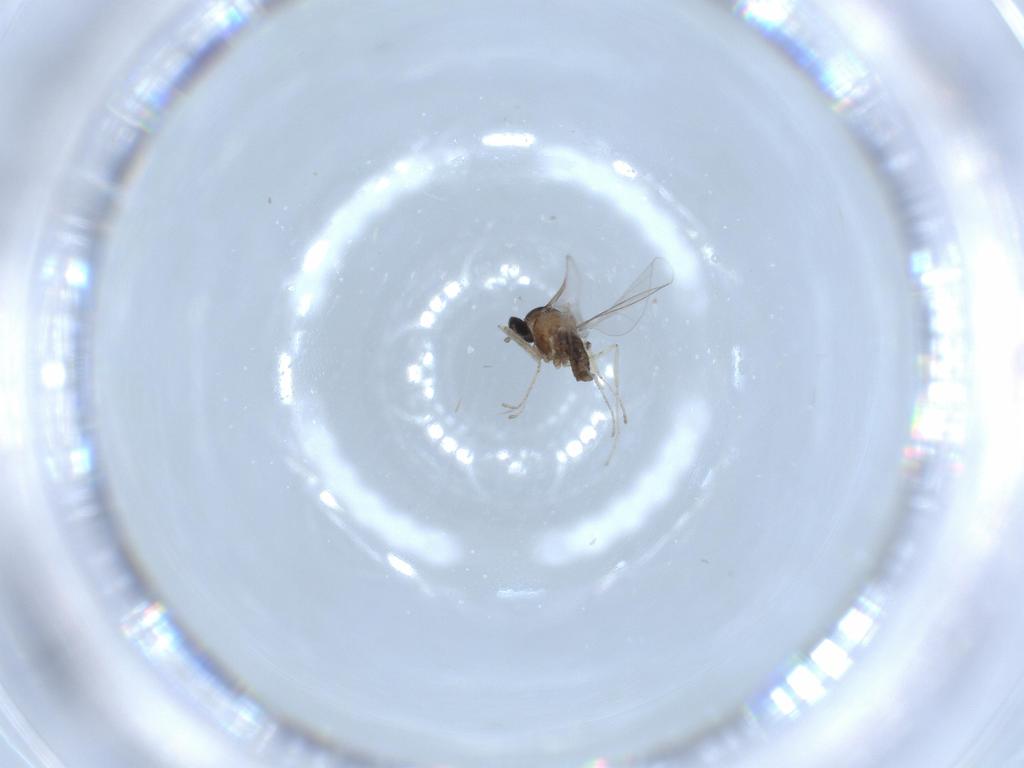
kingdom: Animalia
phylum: Arthropoda
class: Insecta
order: Diptera
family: Cecidomyiidae
